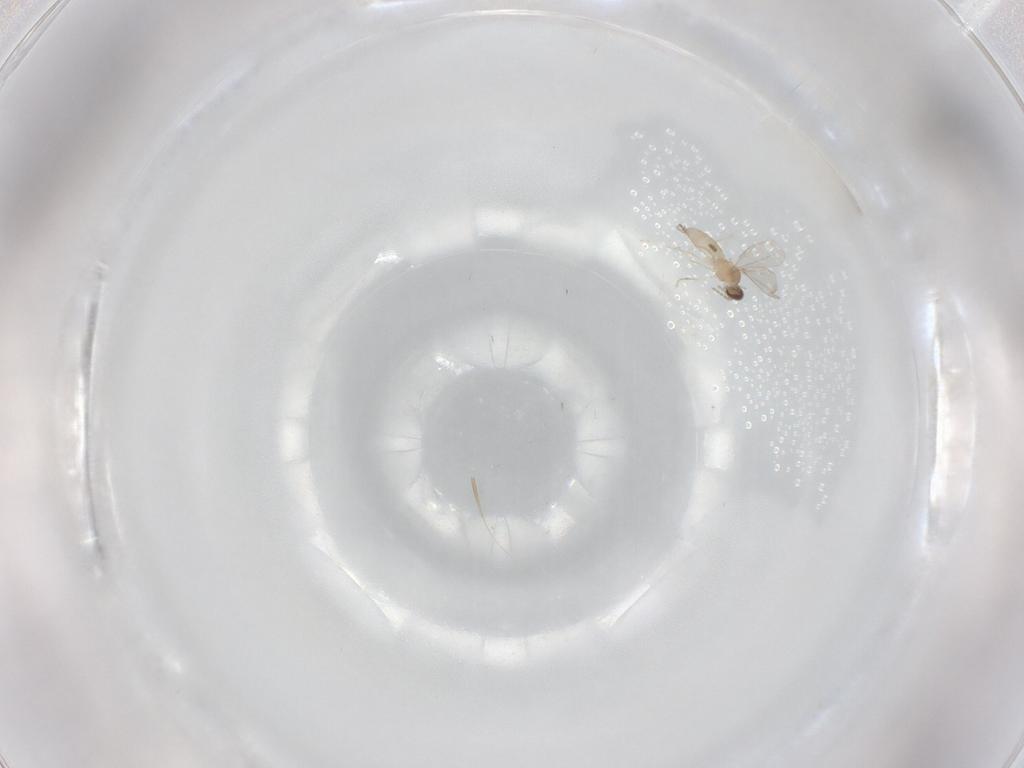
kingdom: Animalia
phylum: Arthropoda
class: Insecta
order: Diptera
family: Cecidomyiidae
